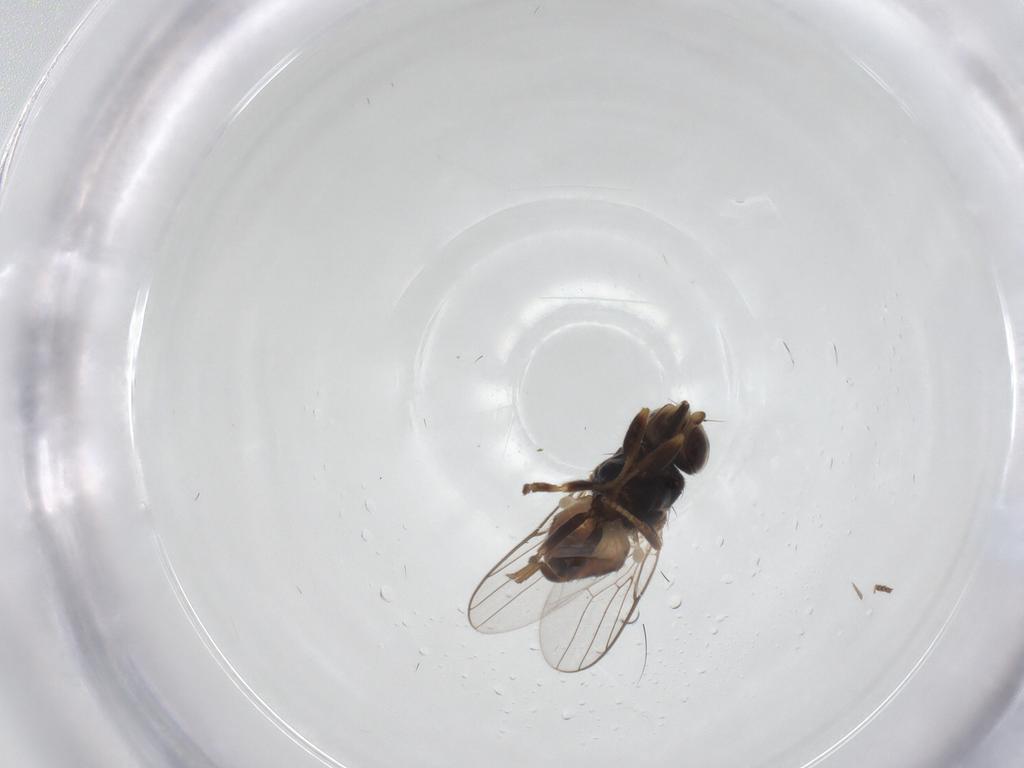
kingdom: Animalia
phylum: Arthropoda
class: Insecta
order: Diptera
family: Chloropidae
